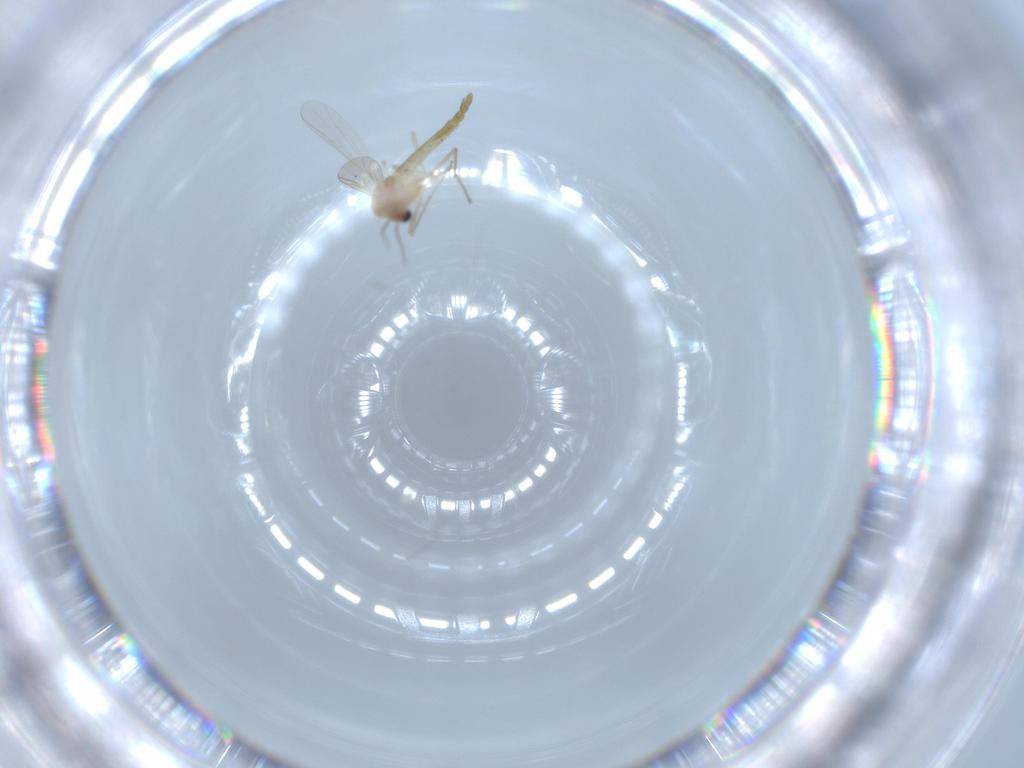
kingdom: Animalia
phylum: Arthropoda
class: Insecta
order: Diptera
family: Chironomidae
